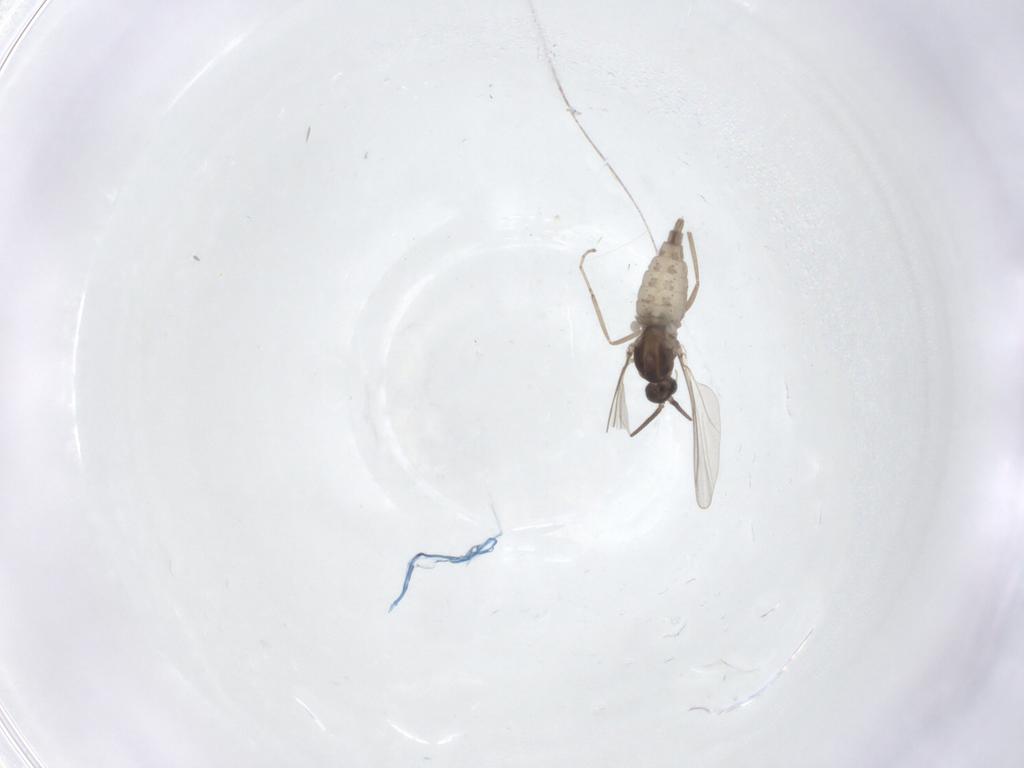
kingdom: Animalia
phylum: Arthropoda
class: Insecta
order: Diptera
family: Cecidomyiidae
